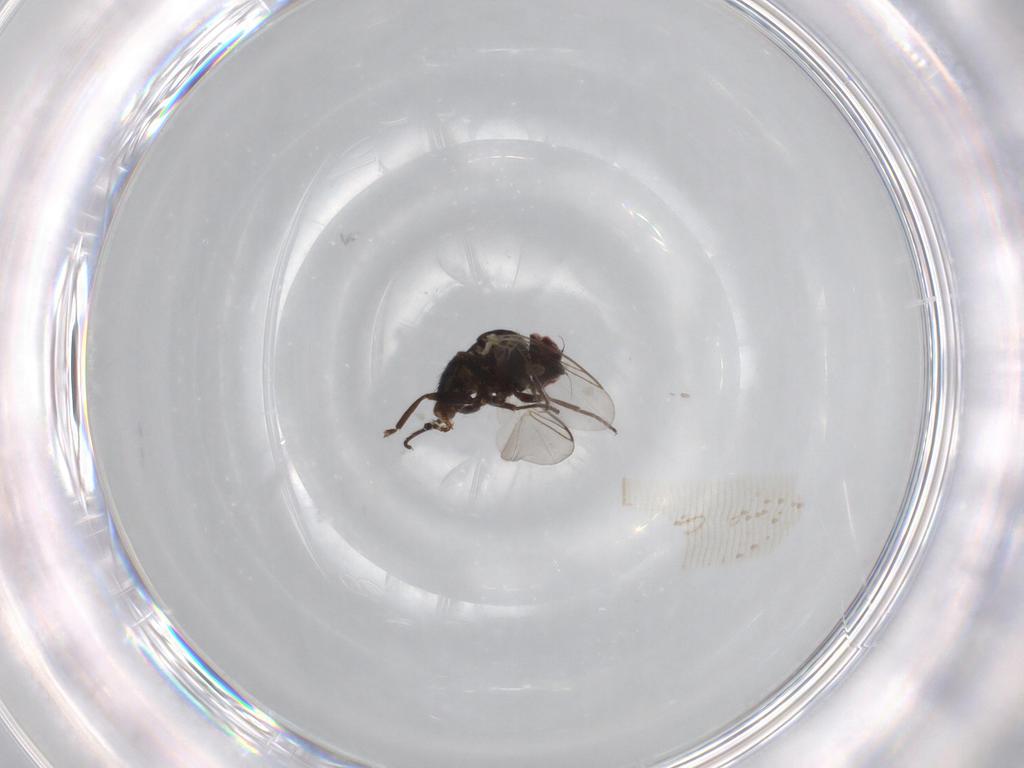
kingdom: Animalia
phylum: Arthropoda
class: Insecta
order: Diptera
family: Agromyzidae
